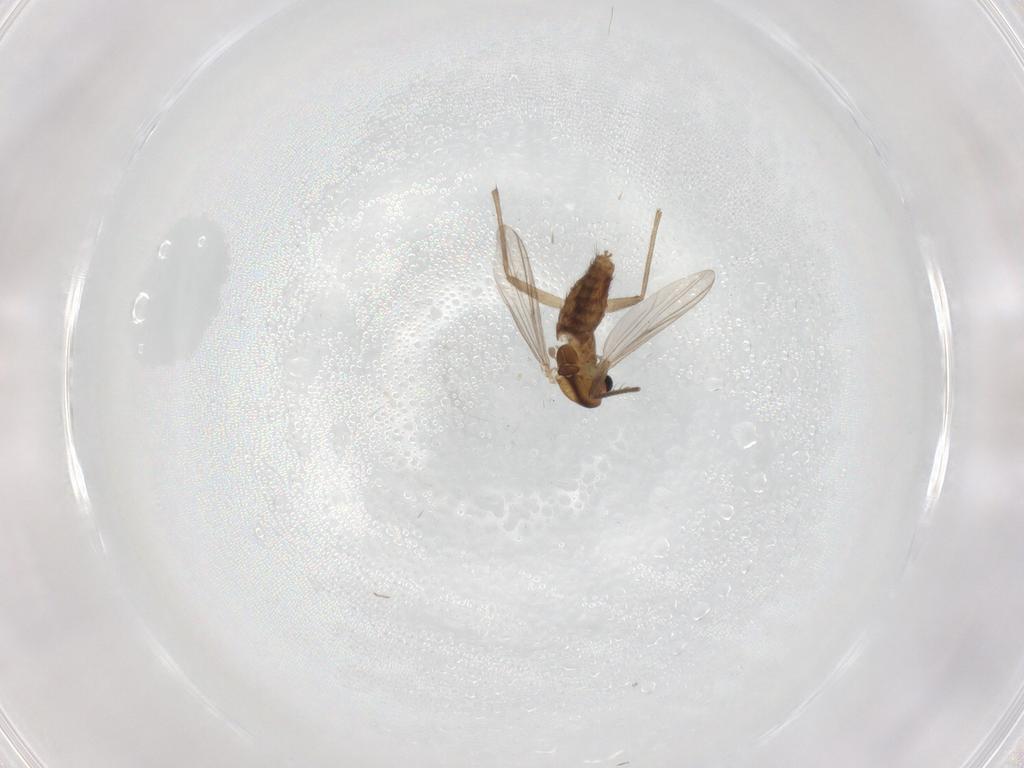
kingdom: Animalia
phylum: Arthropoda
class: Insecta
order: Diptera
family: Chironomidae
